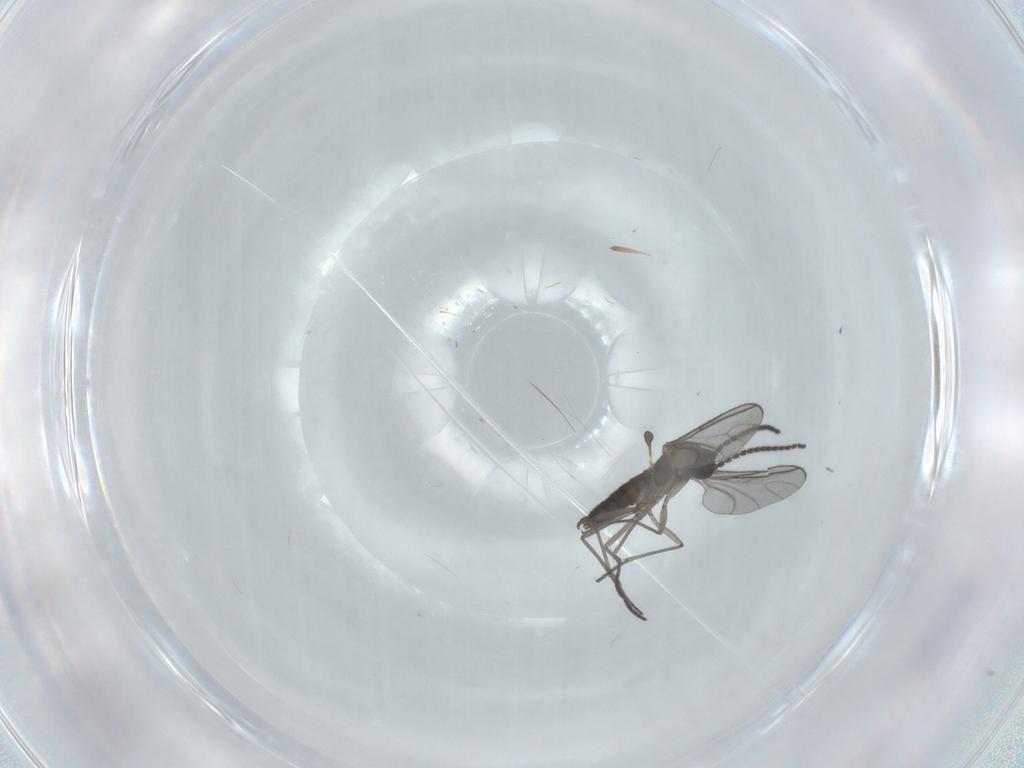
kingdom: Animalia
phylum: Arthropoda
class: Insecta
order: Diptera
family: Sciaridae
